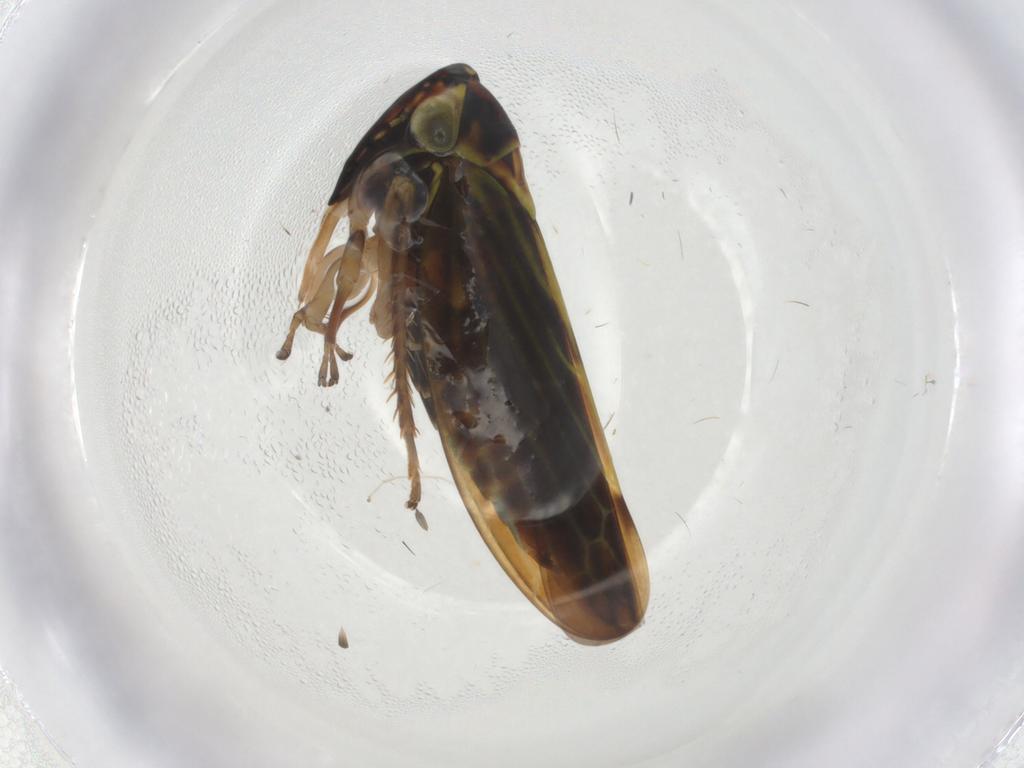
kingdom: Animalia
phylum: Arthropoda
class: Insecta
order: Hemiptera
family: Cicadellidae
